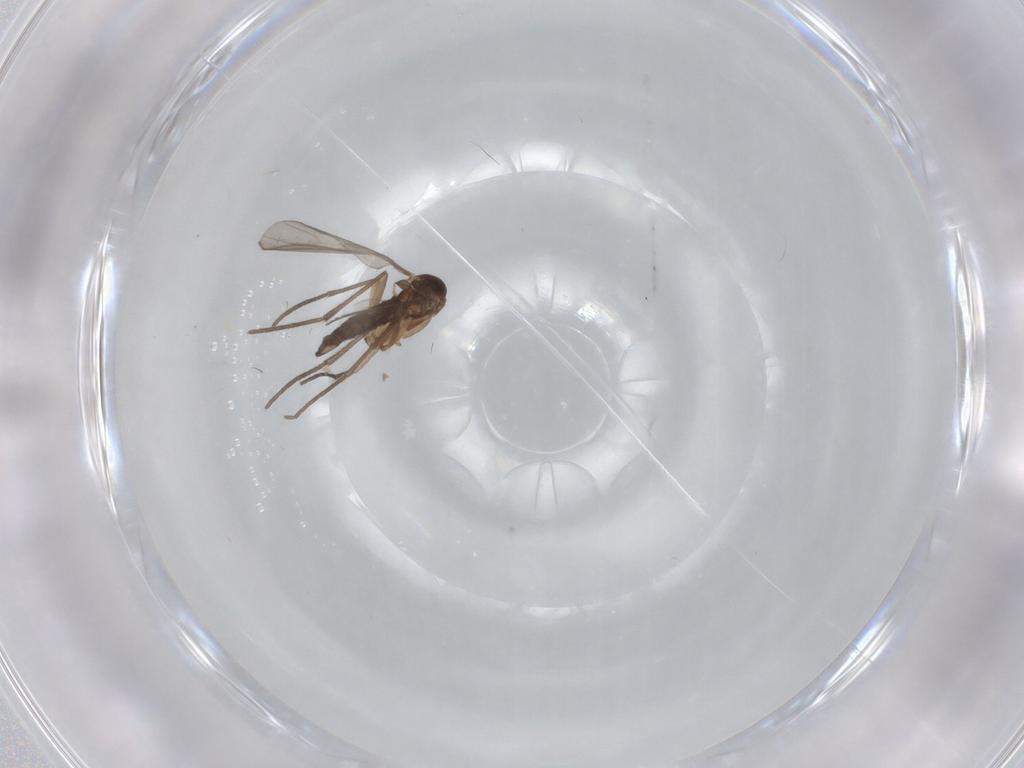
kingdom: Animalia
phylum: Arthropoda
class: Insecta
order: Diptera
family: Sciaridae
